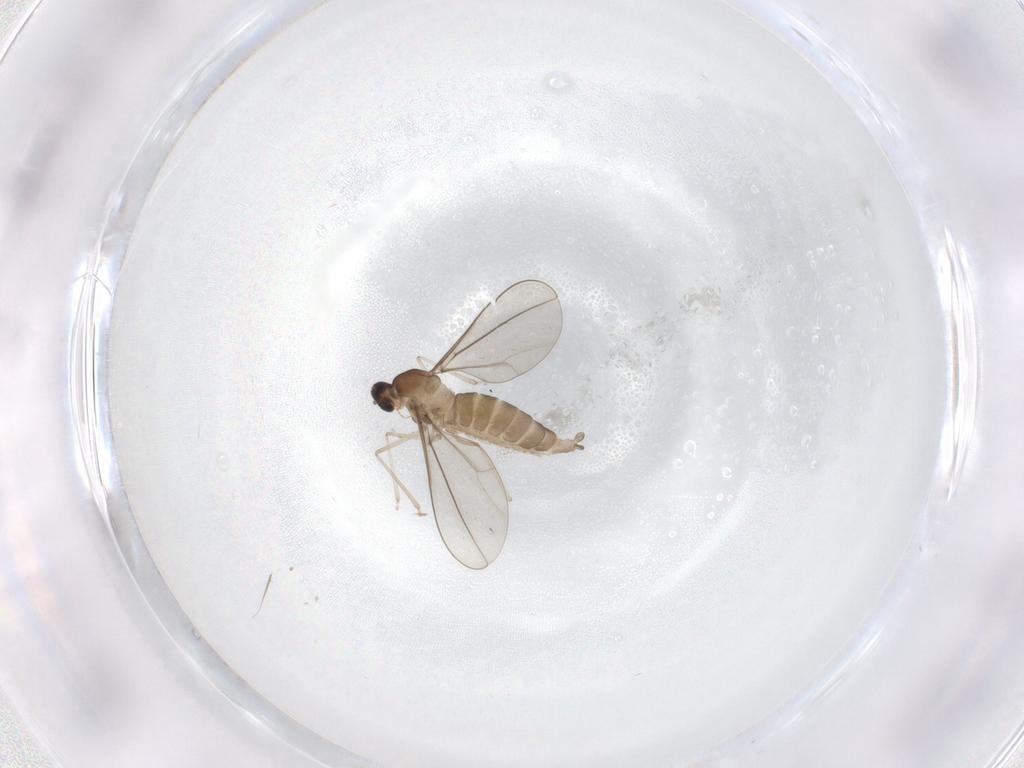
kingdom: Animalia
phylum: Arthropoda
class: Insecta
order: Diptera
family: Cecidomyiidae
